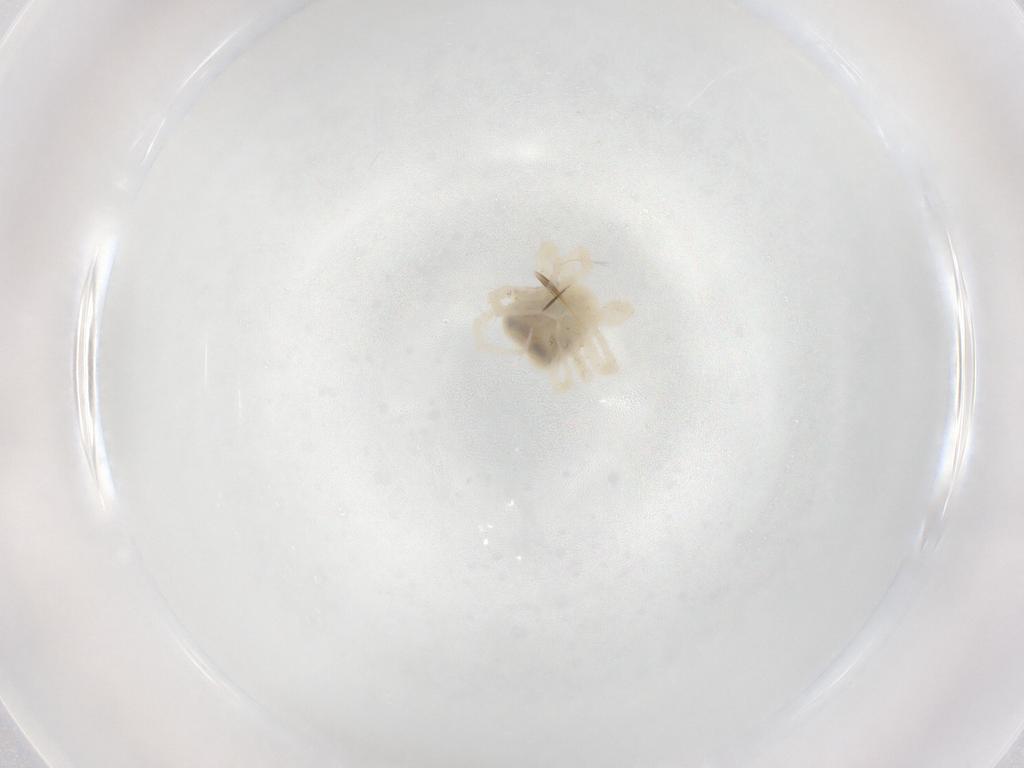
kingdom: Animalia
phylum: Arthropoda
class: Arachnida
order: Trombidiformes
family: Anystidae
